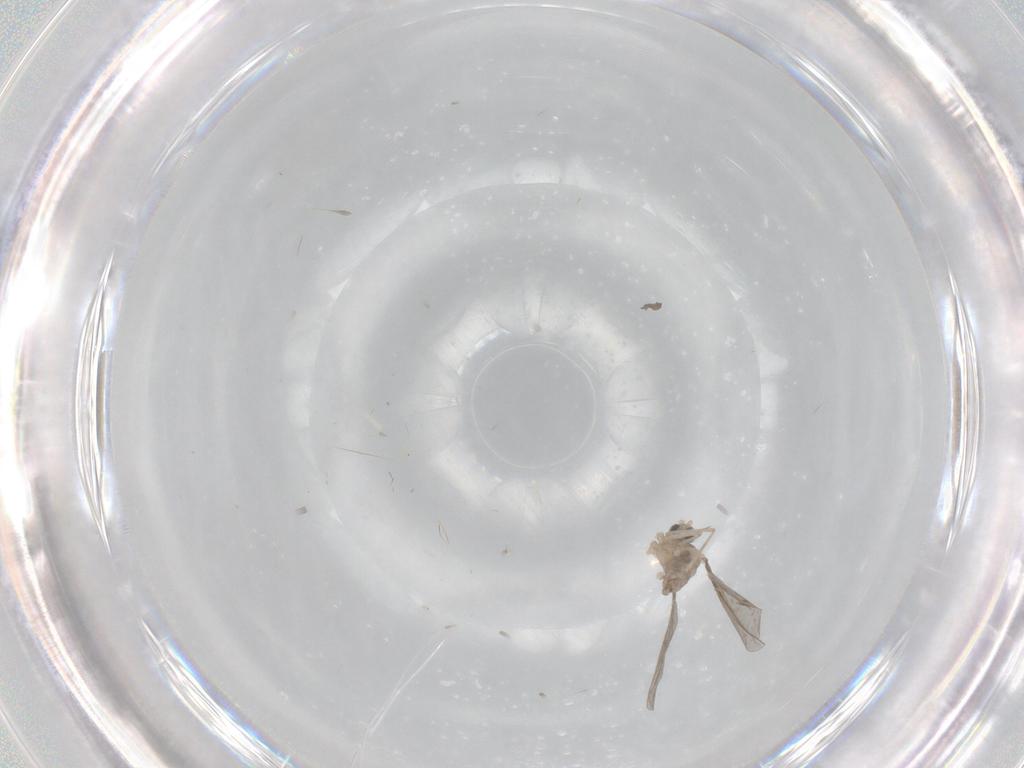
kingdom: Animalia
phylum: Arthropoda
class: Insecta
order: Diptera
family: Cecidomyiidae
